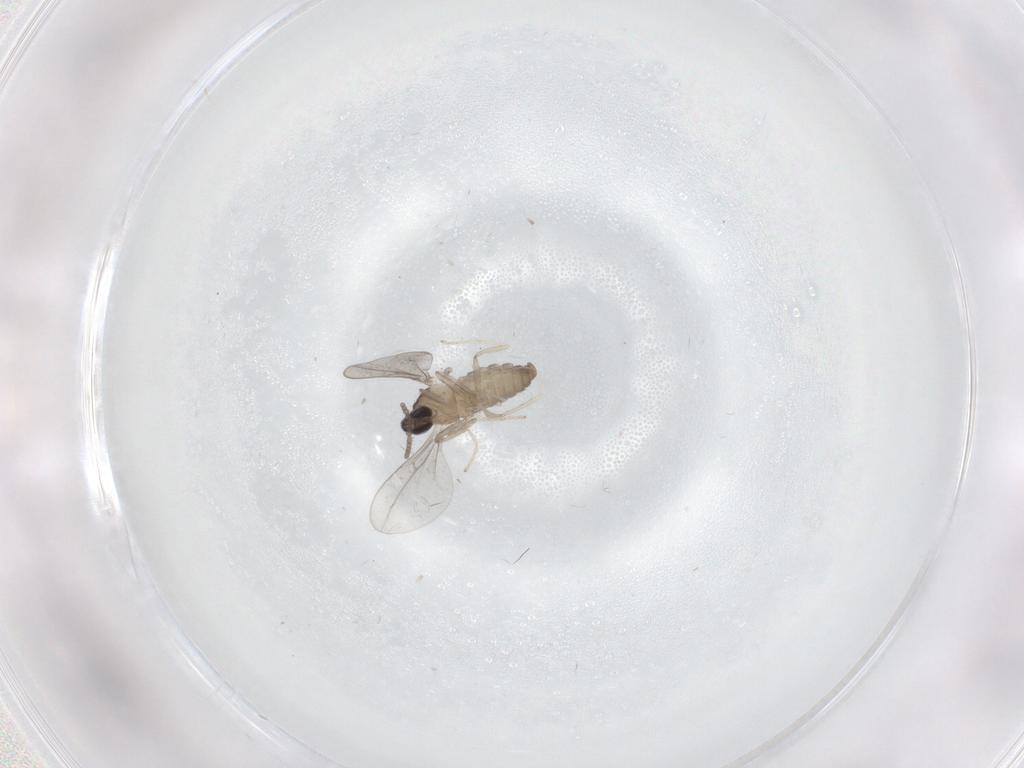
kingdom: Animalia
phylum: Arthropoda
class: Insecta
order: Diptera
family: Cecidomyiidae
